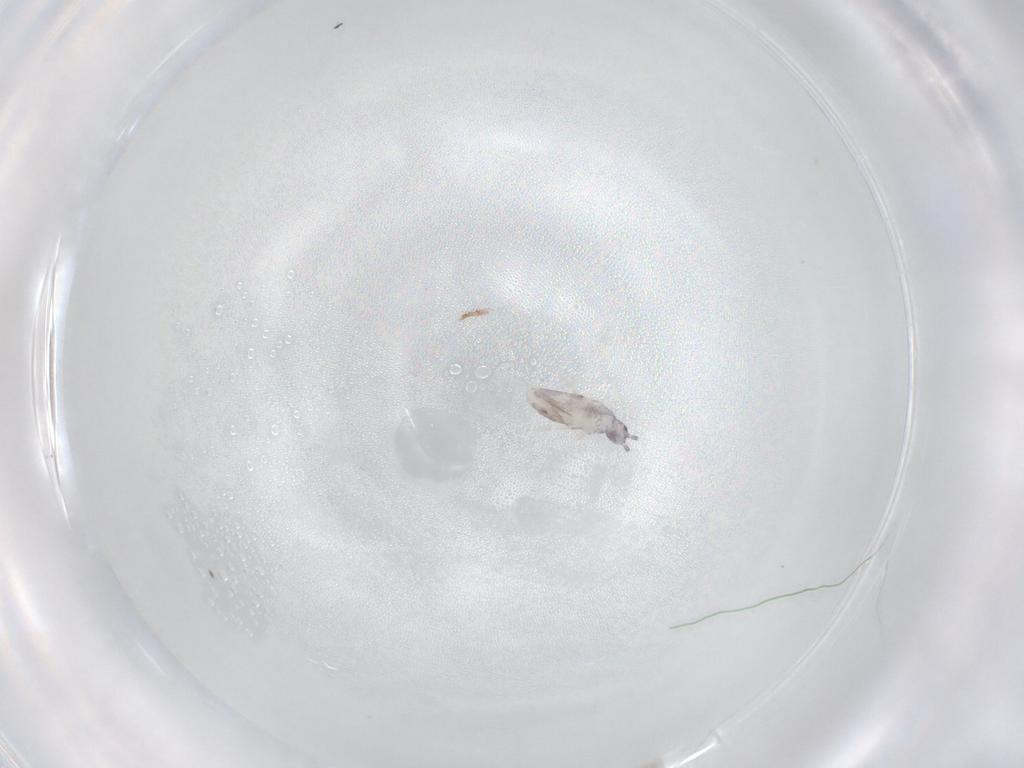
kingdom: Animalia
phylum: Arthropoda
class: Collembola
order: Entomobryomorpha
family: Entomobryidae
